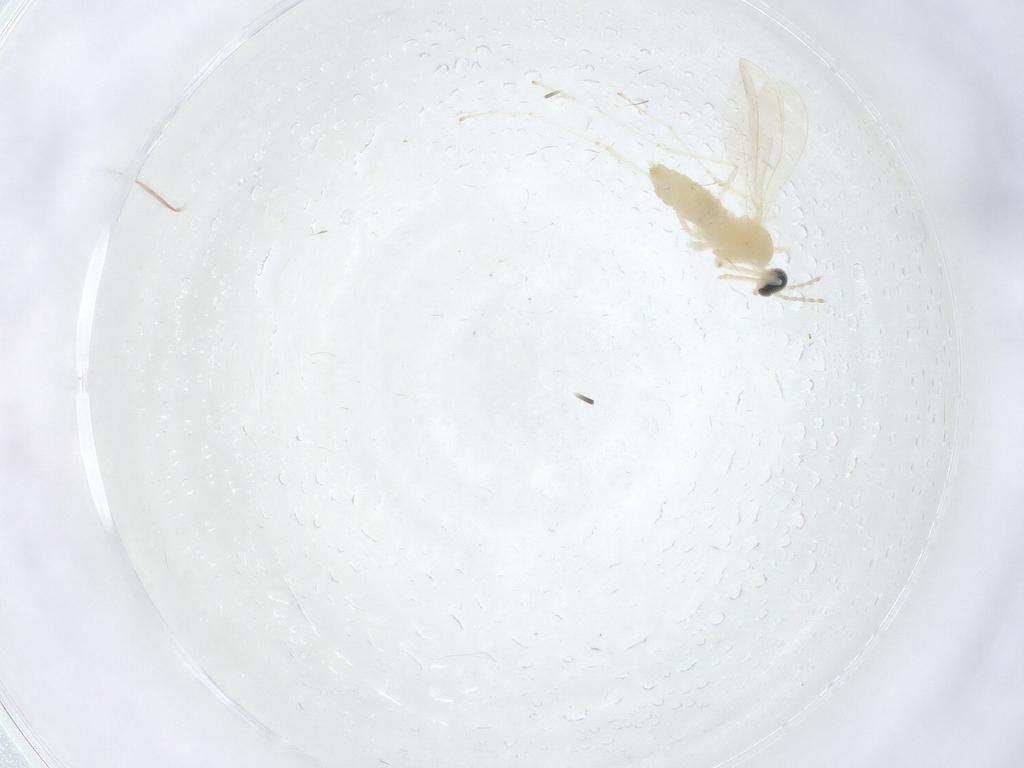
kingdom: Animalia
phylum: Arthropoda
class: Insecta
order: Diptera
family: Cecidomyiidae
